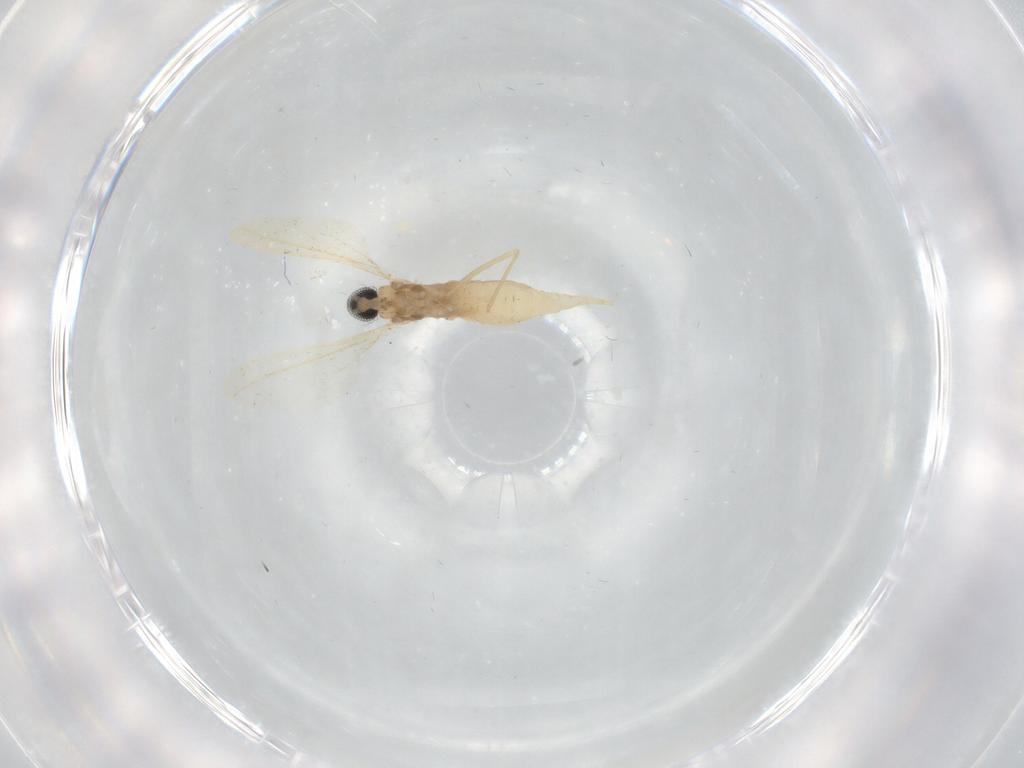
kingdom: Animalia
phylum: Arthropoda
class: Insecta
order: Diptera
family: Cecidomyiidae
